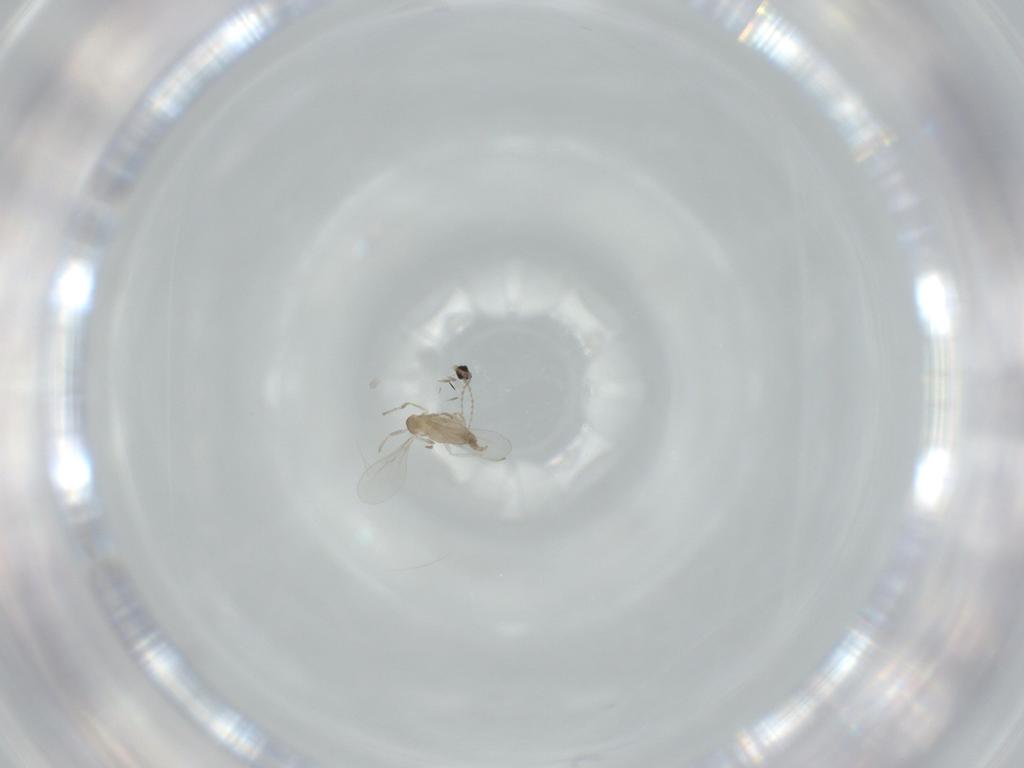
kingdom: Animalia
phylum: Arthropoda
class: Insecta
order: Diptera
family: Cecidomyiidae
